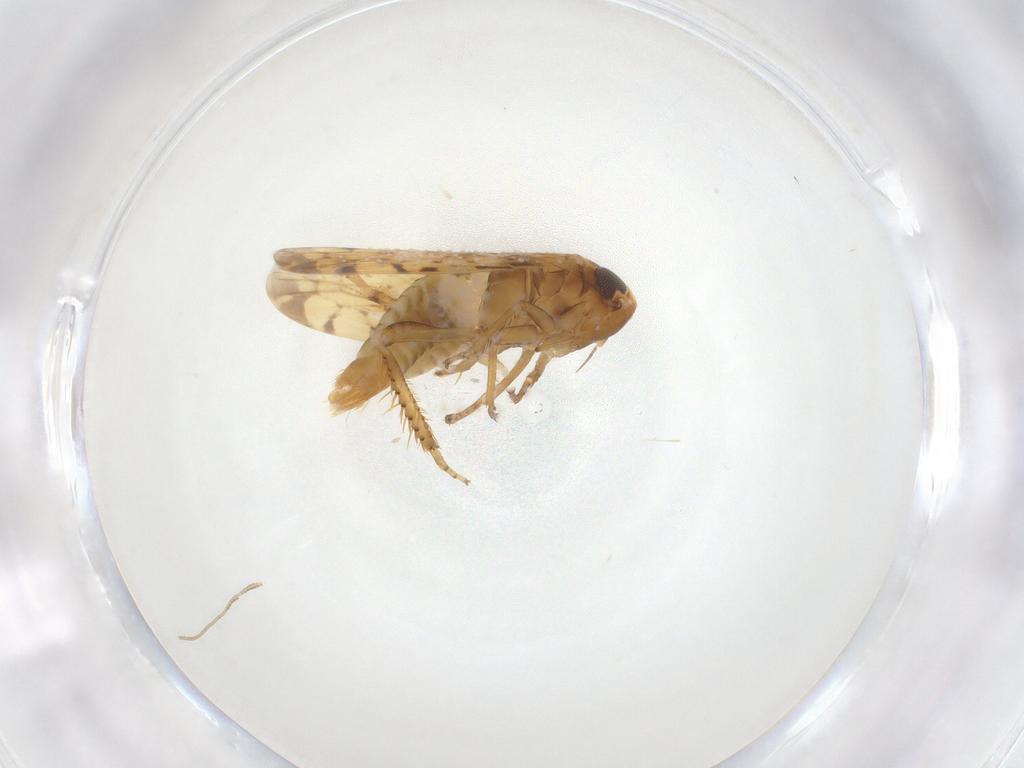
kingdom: Animalia
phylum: Arthropoda
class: Insecta
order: Hemiptera
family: Cicadellidae
